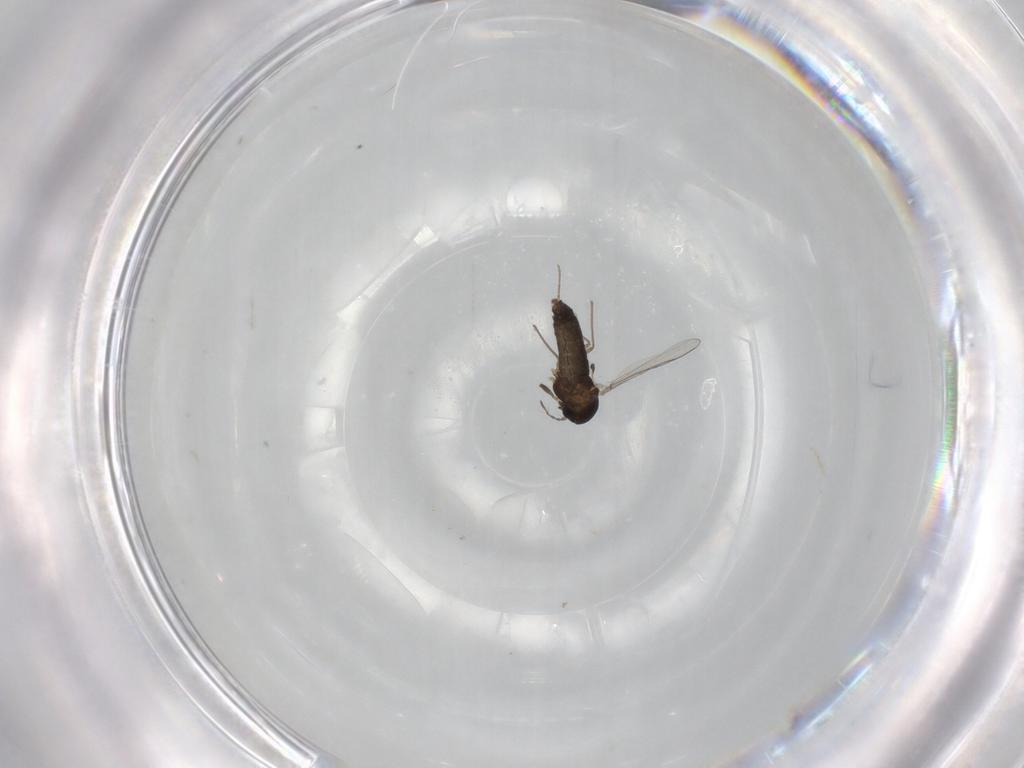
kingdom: Animalia
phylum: Arthropoda
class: Insecta
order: Diptera
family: Chironomidae
